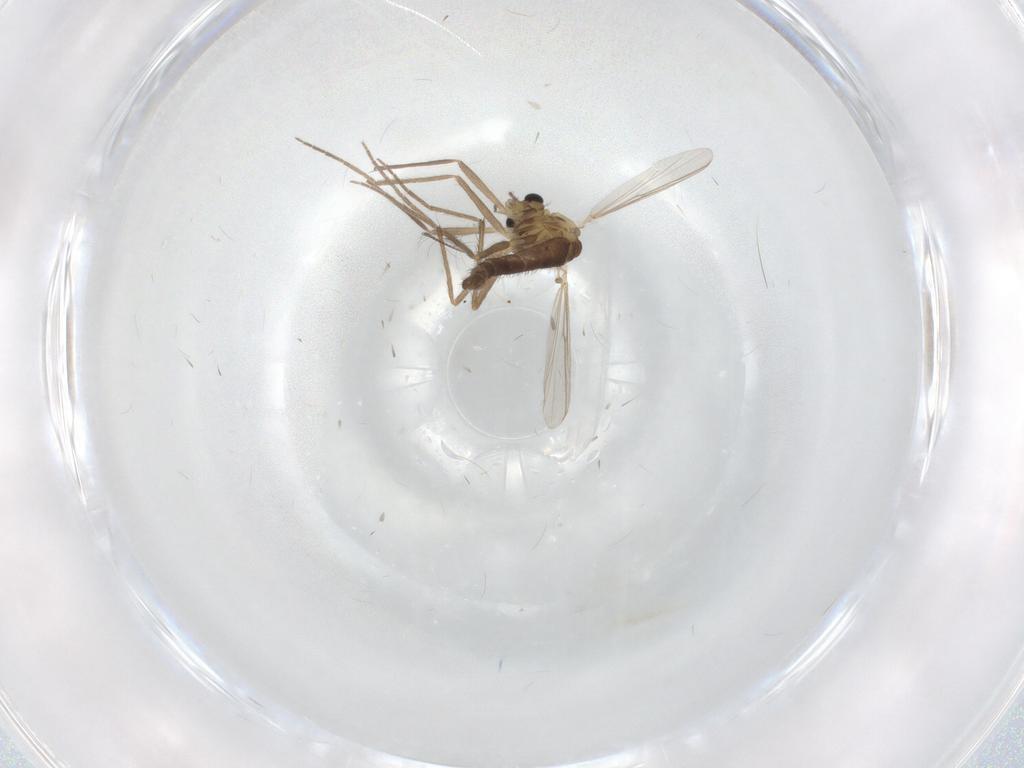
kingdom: Animalia
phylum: Arthropoda
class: Insecta
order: Diptera
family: Chironomidae
